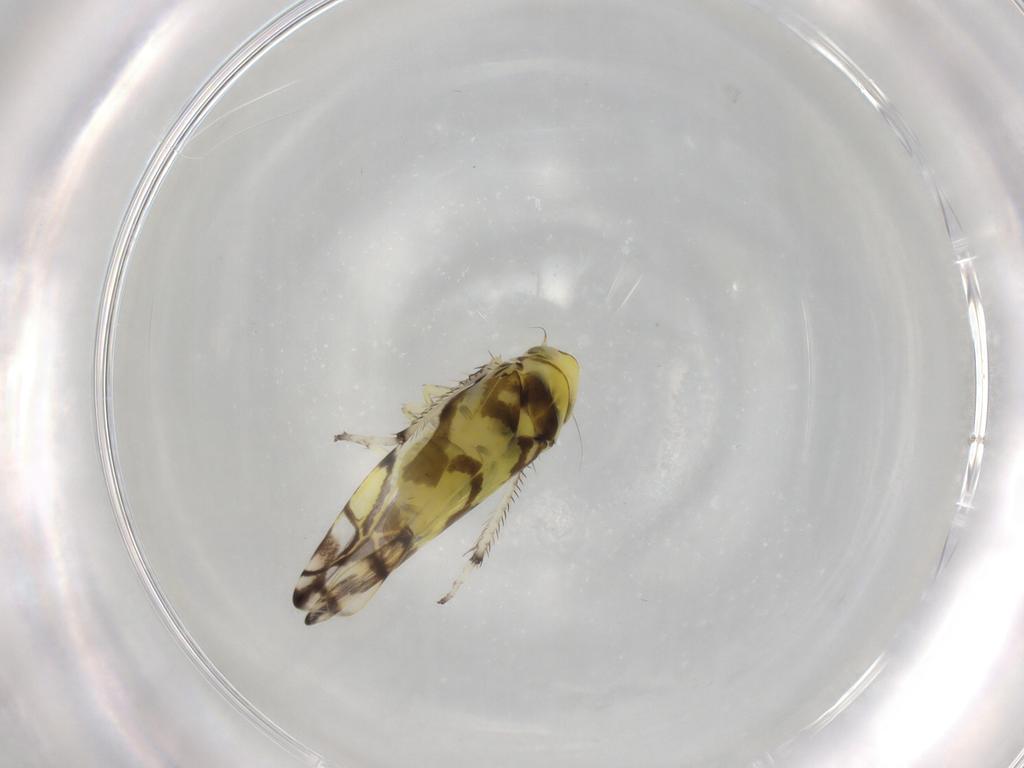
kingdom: Animalia
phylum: Arthropoda
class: Insecta
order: Hemiptera
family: Cicadellidae
